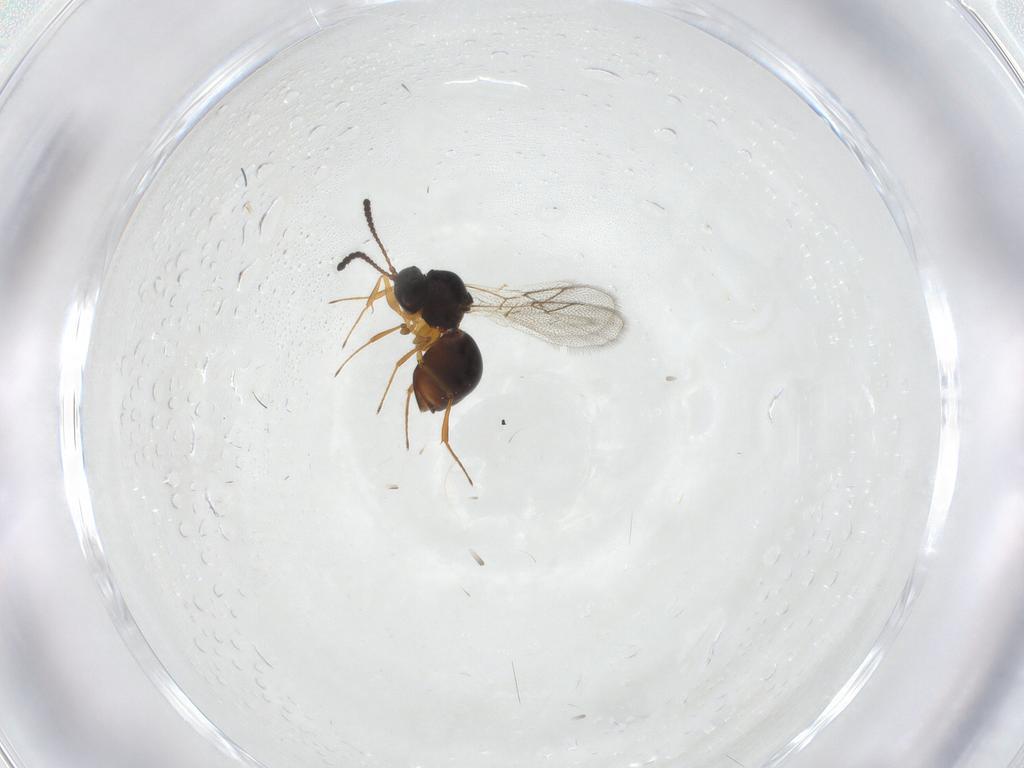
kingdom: Animalia
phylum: Arthropoda
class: Insecta
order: Hymenoptera
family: Figitidae
